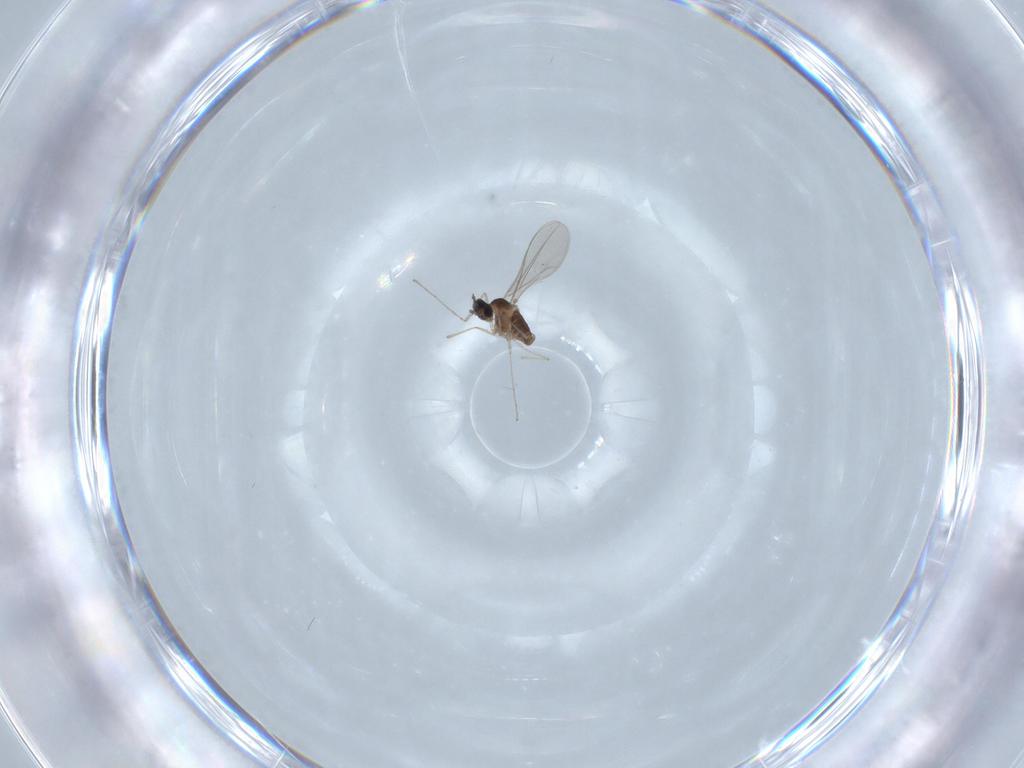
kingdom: Animalia
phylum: Arthropoda
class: Insecta
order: Diptera
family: Cecidomyiidae
